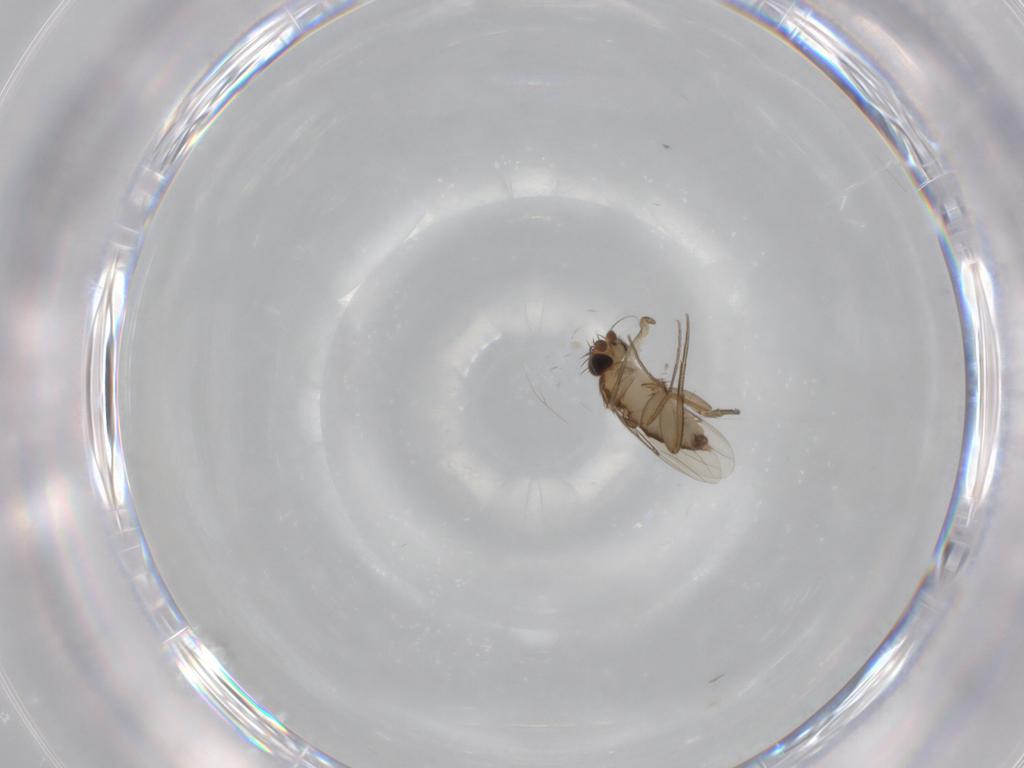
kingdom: Animalia
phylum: Arthropoda
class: Insecta
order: Diptera
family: Phoridae
